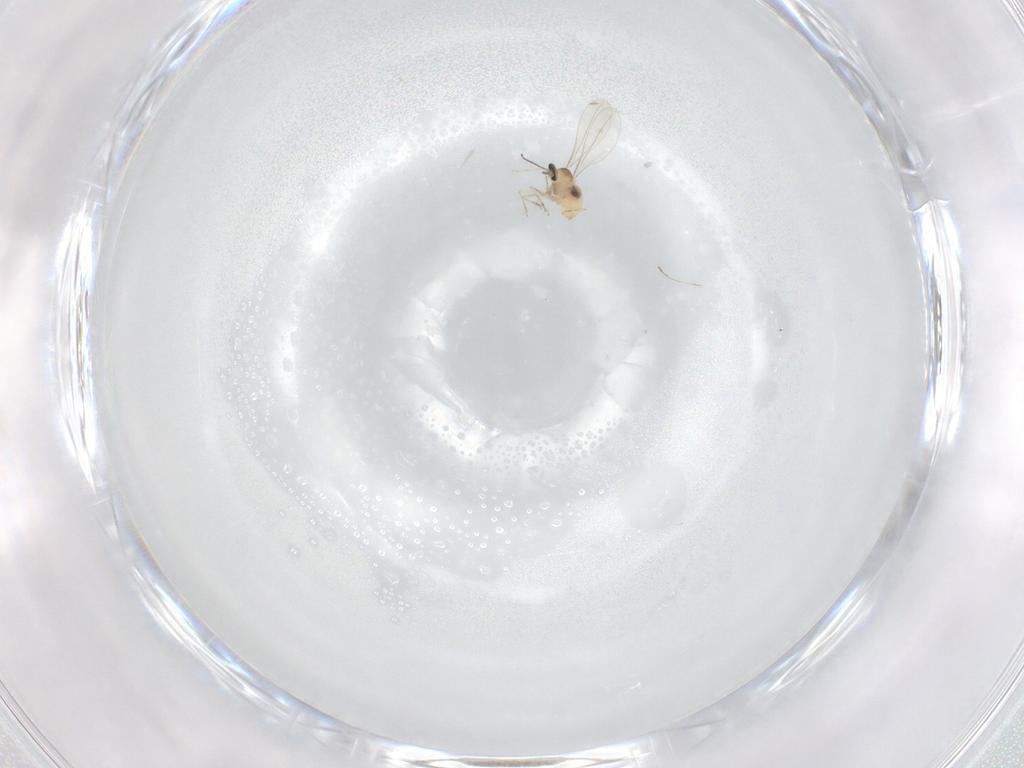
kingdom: Animalia
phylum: Arthropoda
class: Insecta
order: Diptera
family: Cecidomyiidae
